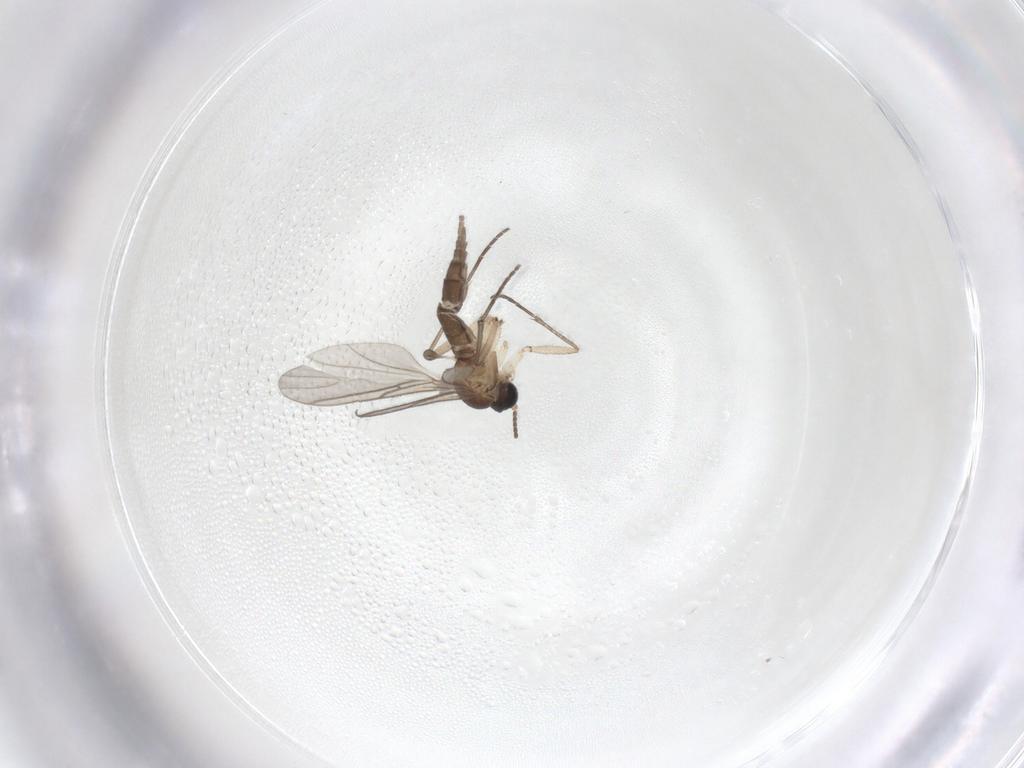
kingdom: Animalia
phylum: Arthropoda
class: Insecta
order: Diptera
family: Sciaridae
